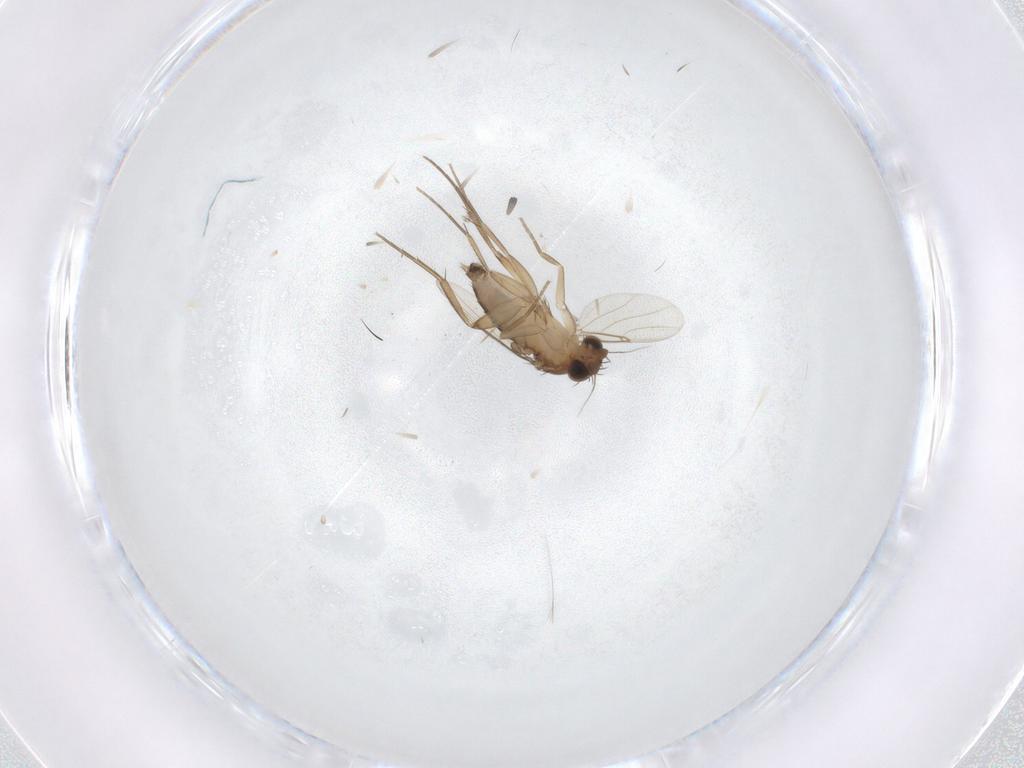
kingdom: Animalia
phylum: Arthropoda
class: Insecta
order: Diptera
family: Phoridae
